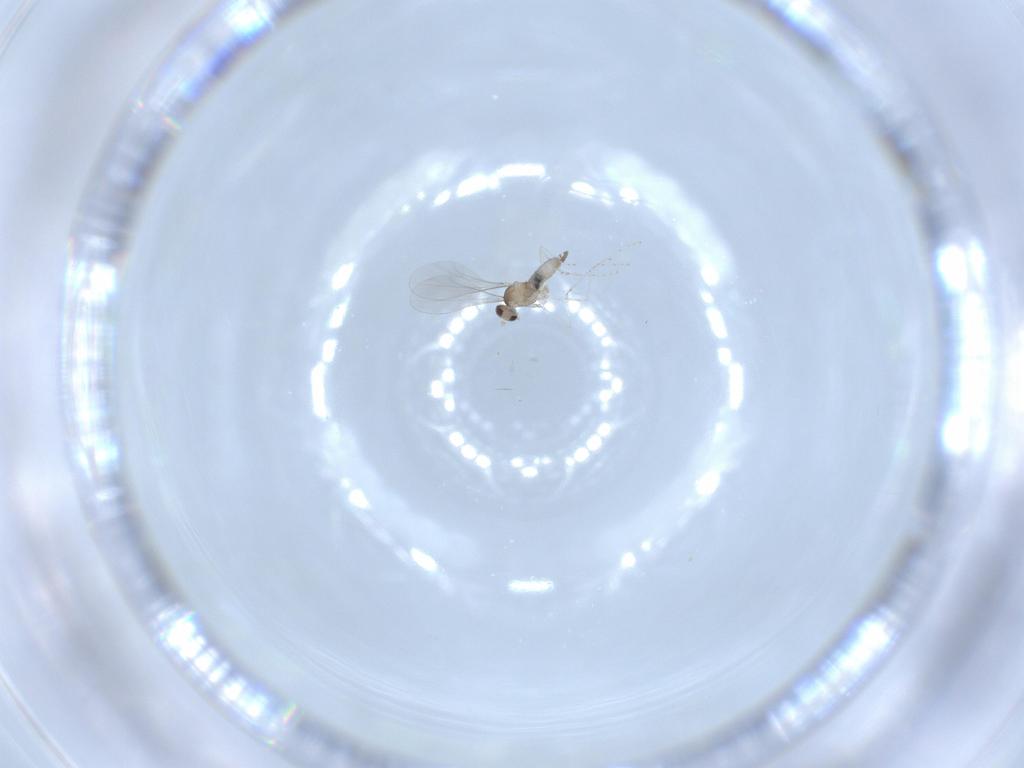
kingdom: Animalia
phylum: Arthropoda
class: Insecta
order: Diptera
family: Cecidomyiidae
